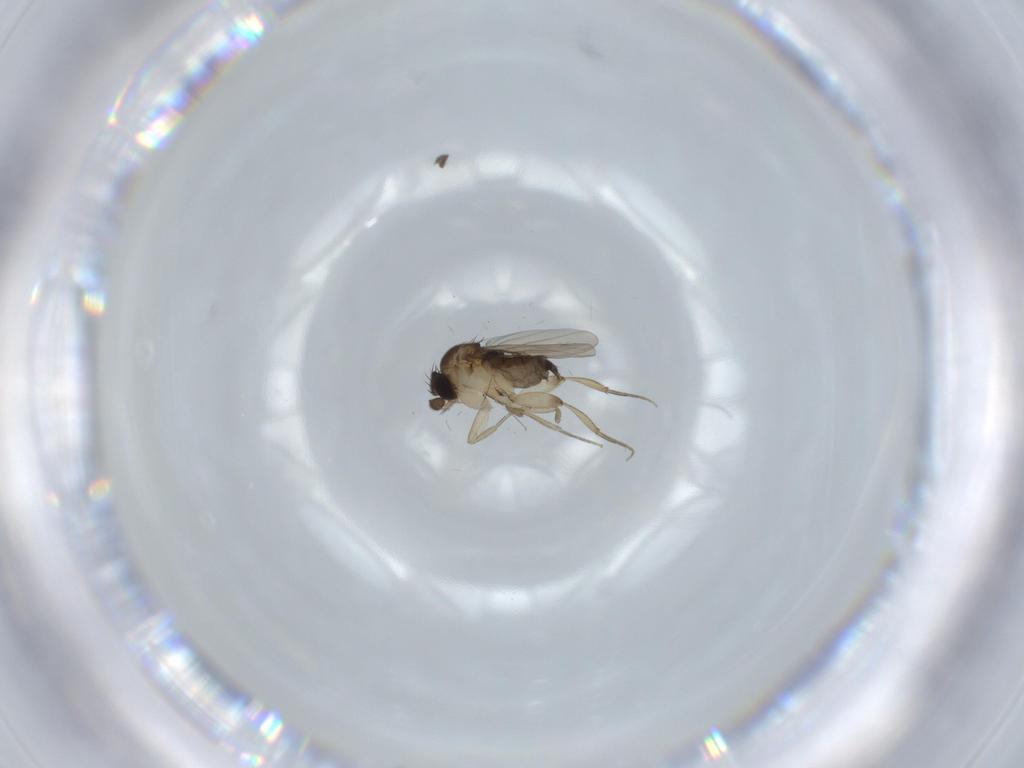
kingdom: Animalia
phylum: Arthropoda
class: Insecta
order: Diptera
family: Phoridae
